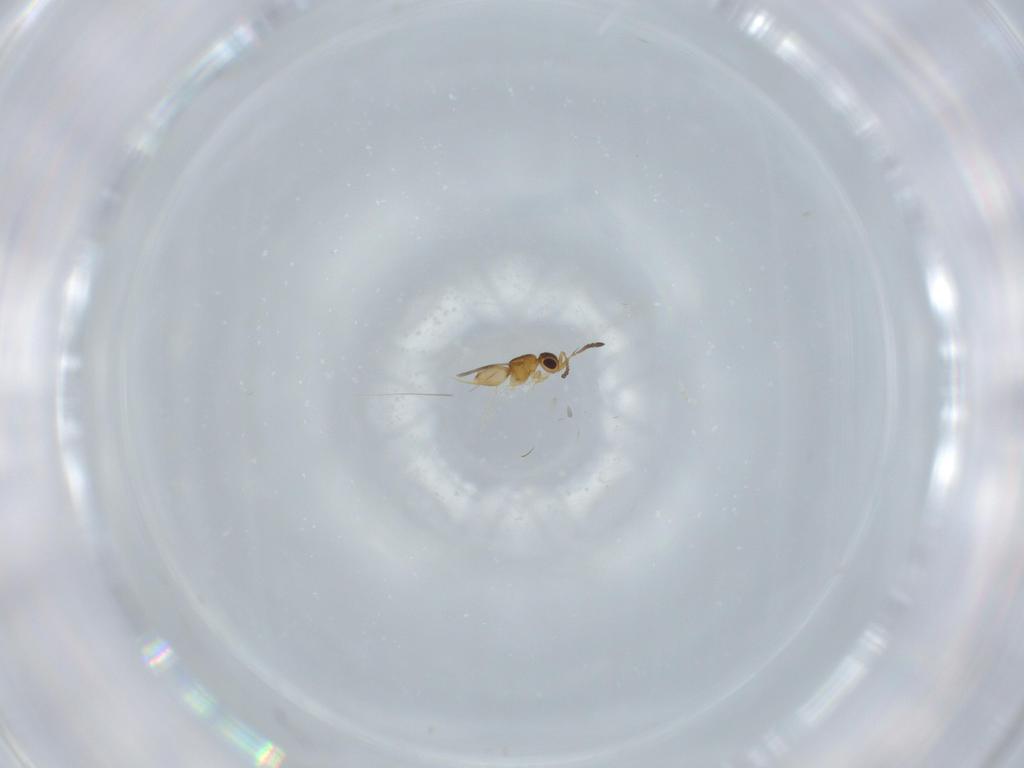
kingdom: Animalia
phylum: Arthropoda
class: Insecta
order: Hymenoptera
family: Ceraphronidae
